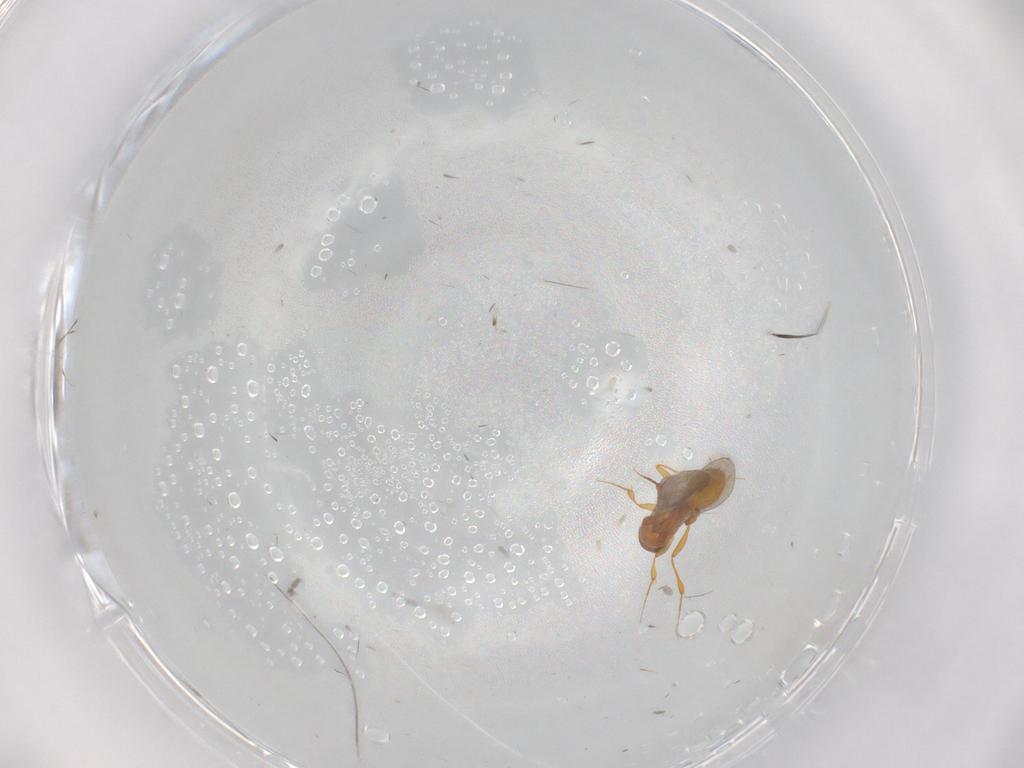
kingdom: Animalia
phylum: Arthropoda
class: Insecta
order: Hymenoptera
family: Platygastridae
